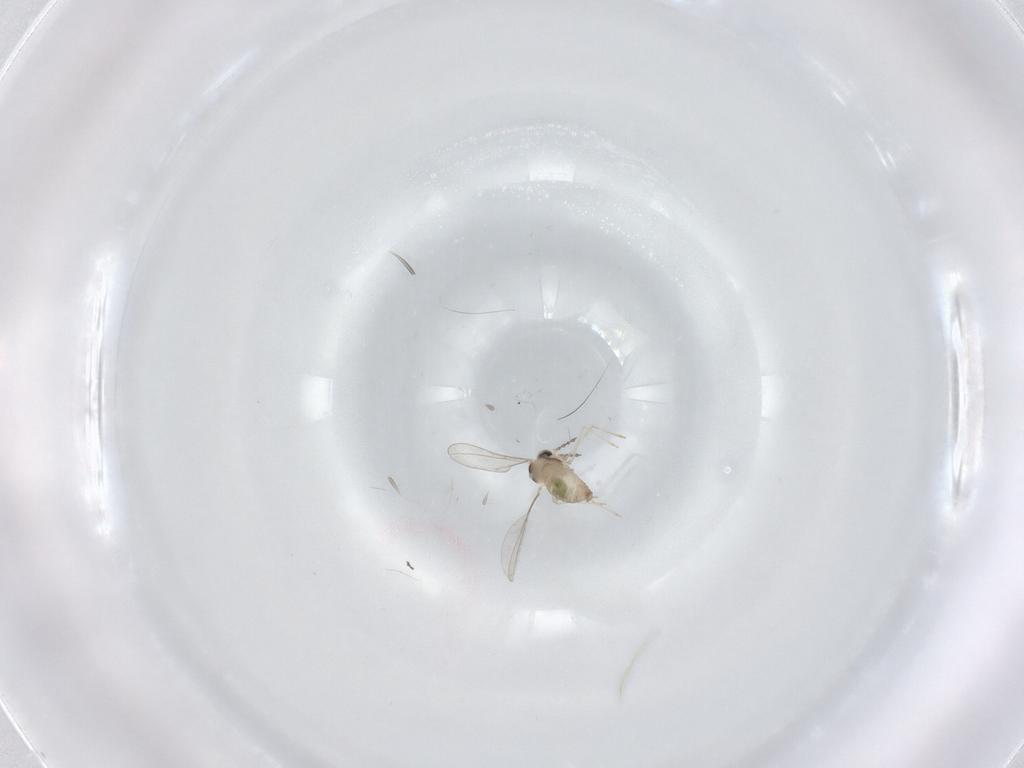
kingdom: Animalia
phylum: Arthropoda
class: Insecta
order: Diptera
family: Cecidomyiidae
